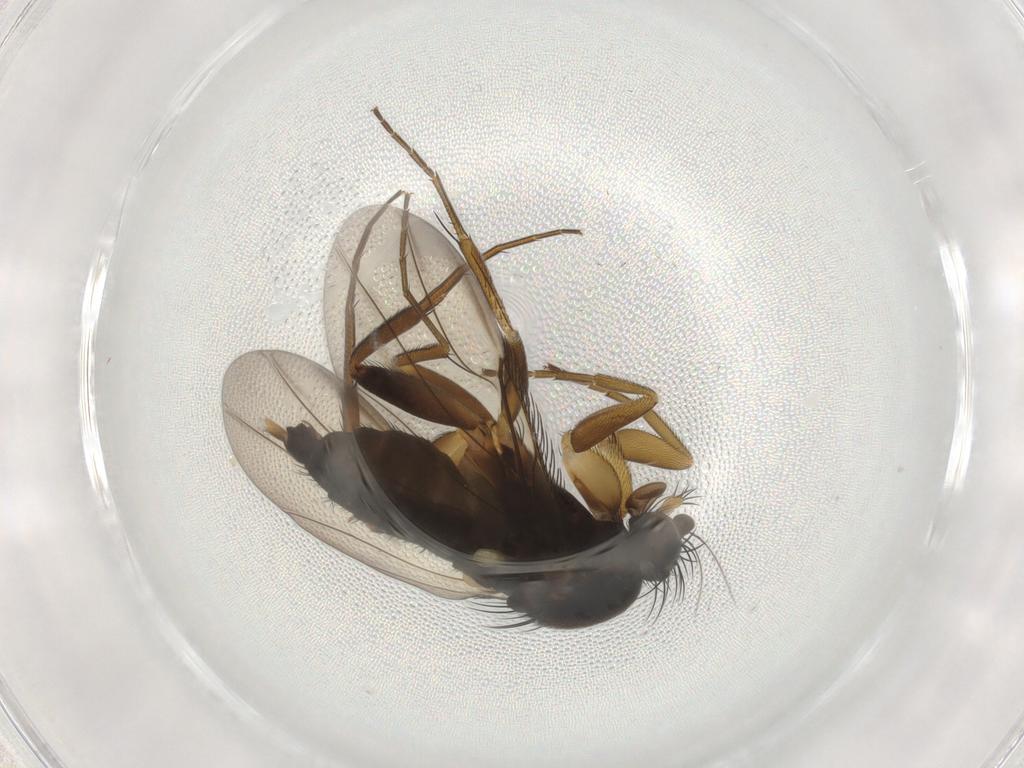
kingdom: Animalia
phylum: Arthropoda
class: Insecta
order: Diptera
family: Phoridae
